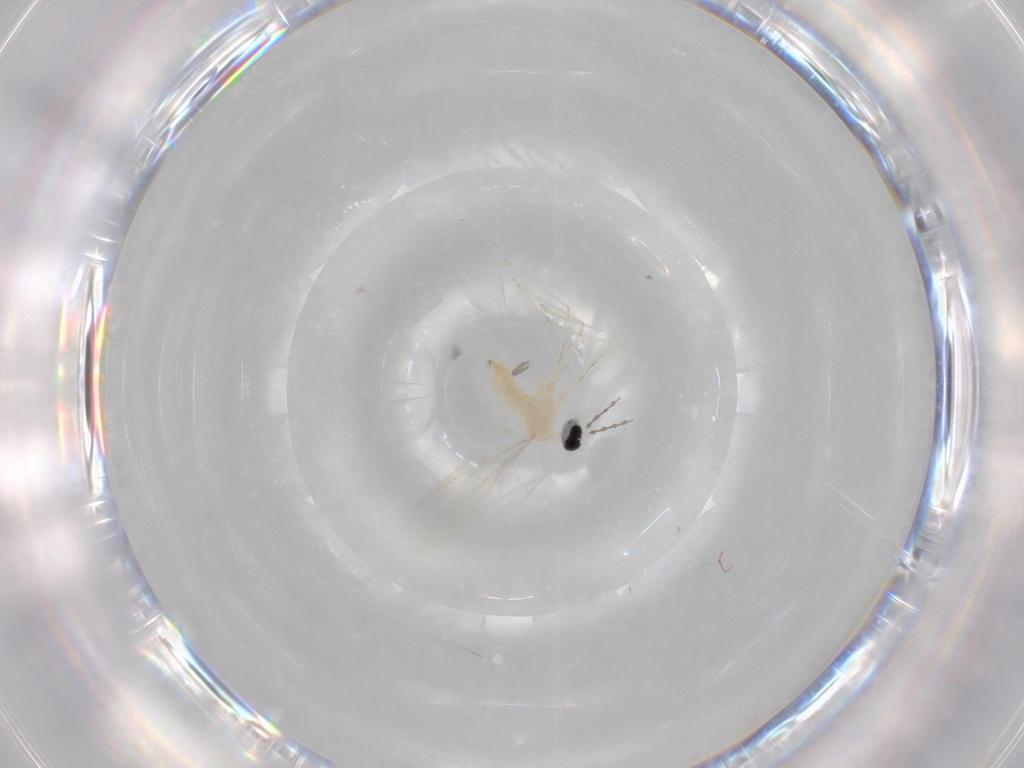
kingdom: Animalia
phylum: Arthropoda
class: Insecta
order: Diptera
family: Cecidomyiidae
